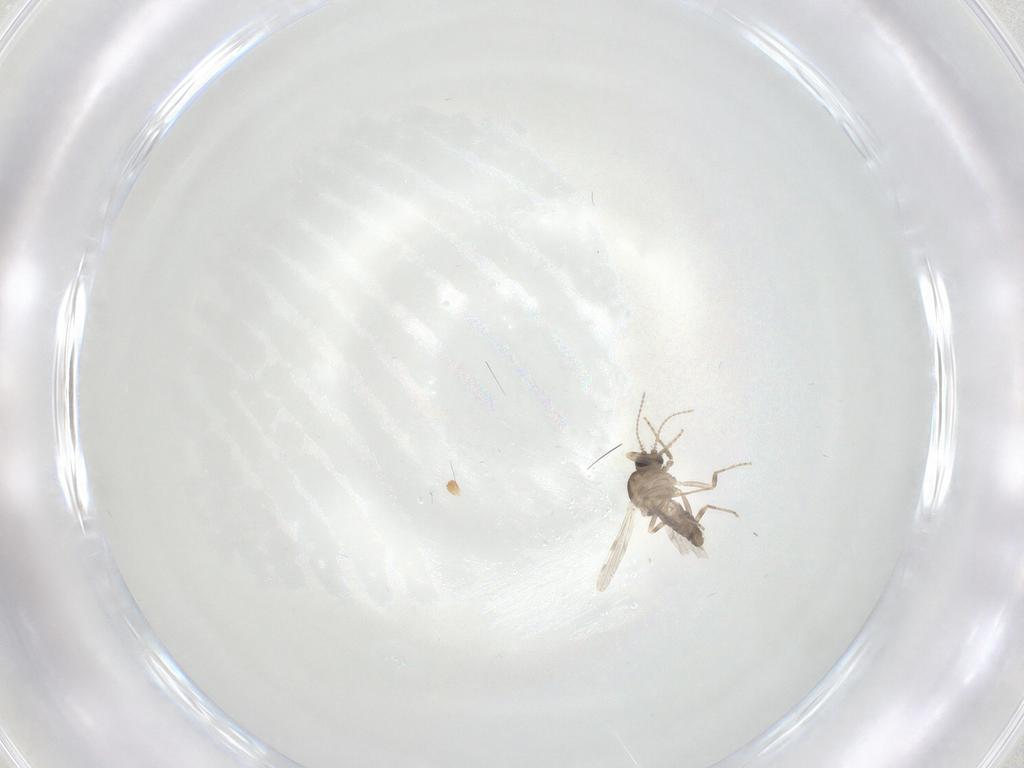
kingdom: Animalia
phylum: Arthropoda
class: Insecta
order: Diptera
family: Ceratopogonidae
